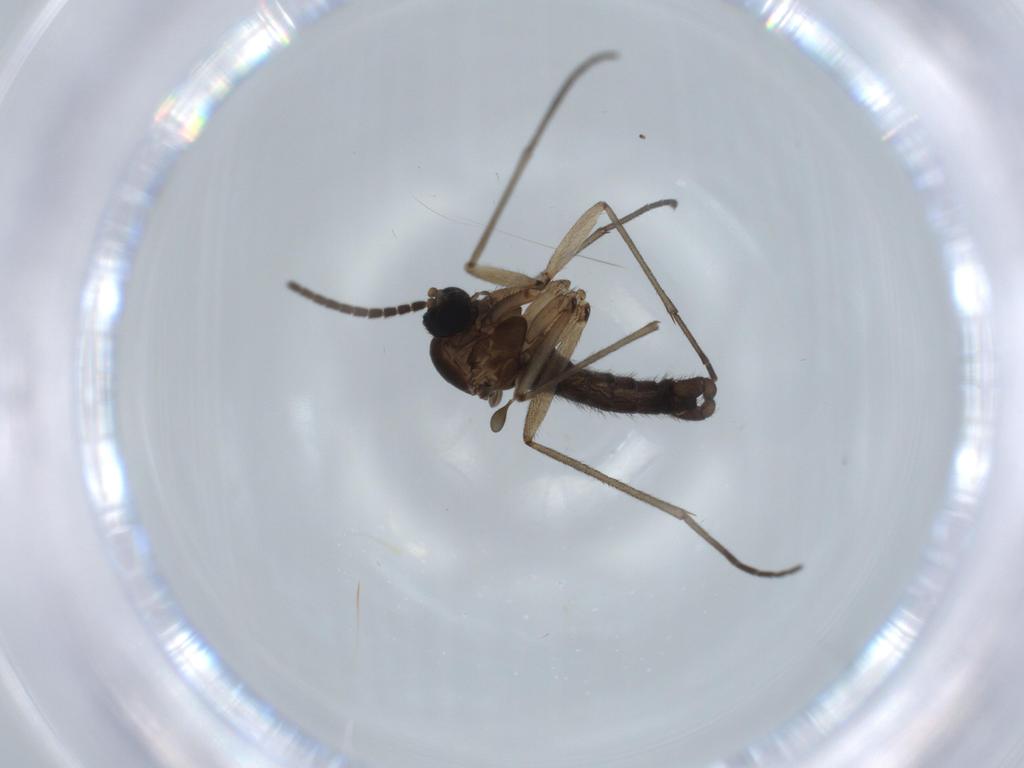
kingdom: Animalia
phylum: Arthropoda
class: Insecta
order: Diptera
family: Sciaridae
